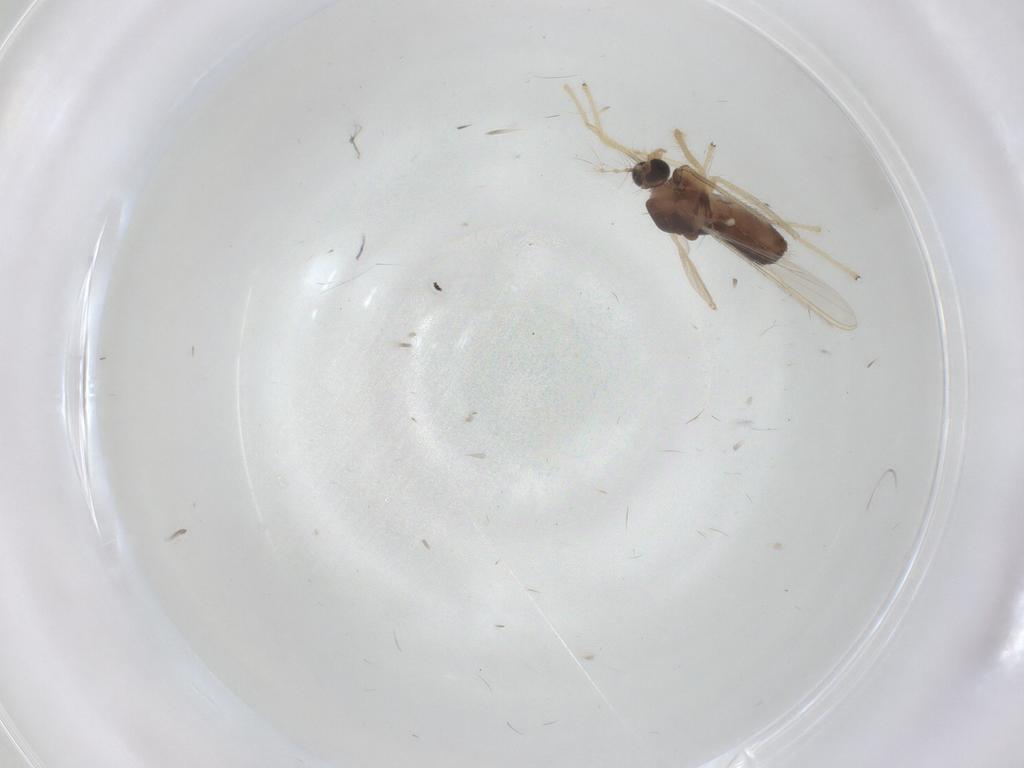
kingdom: Animalia
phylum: Arthropoda
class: Insecta
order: Diptera
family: Chironomidae
